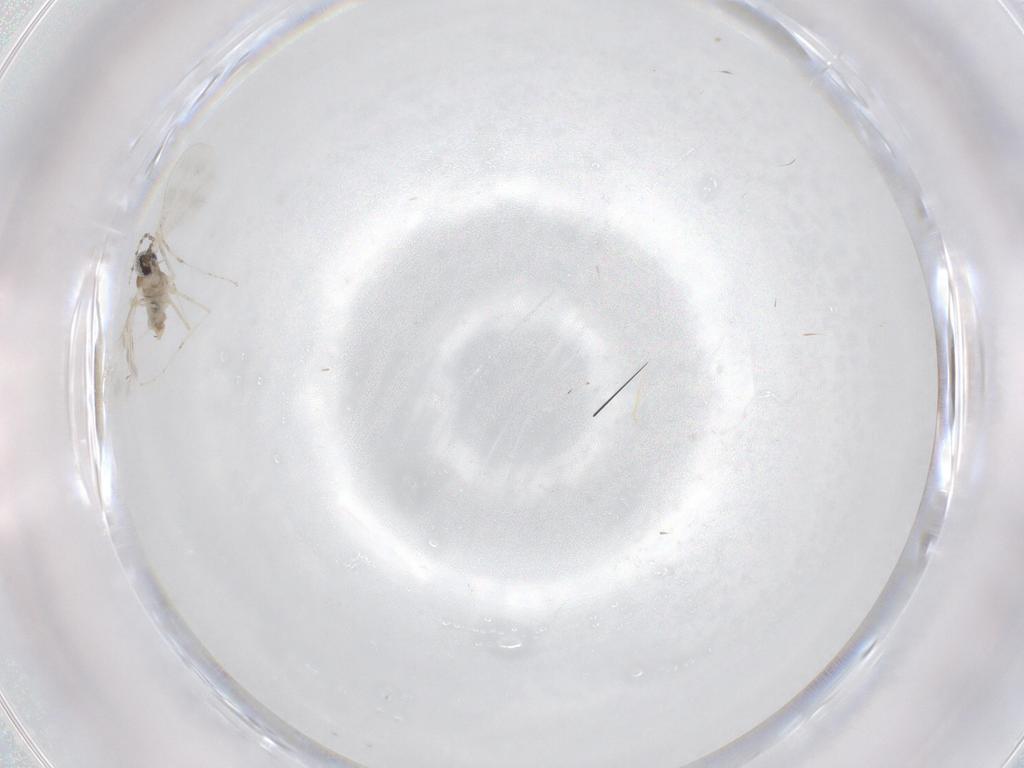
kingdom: Animalia
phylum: Arthropoda
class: Insecta
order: Diptera
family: Cecidomyiidae
